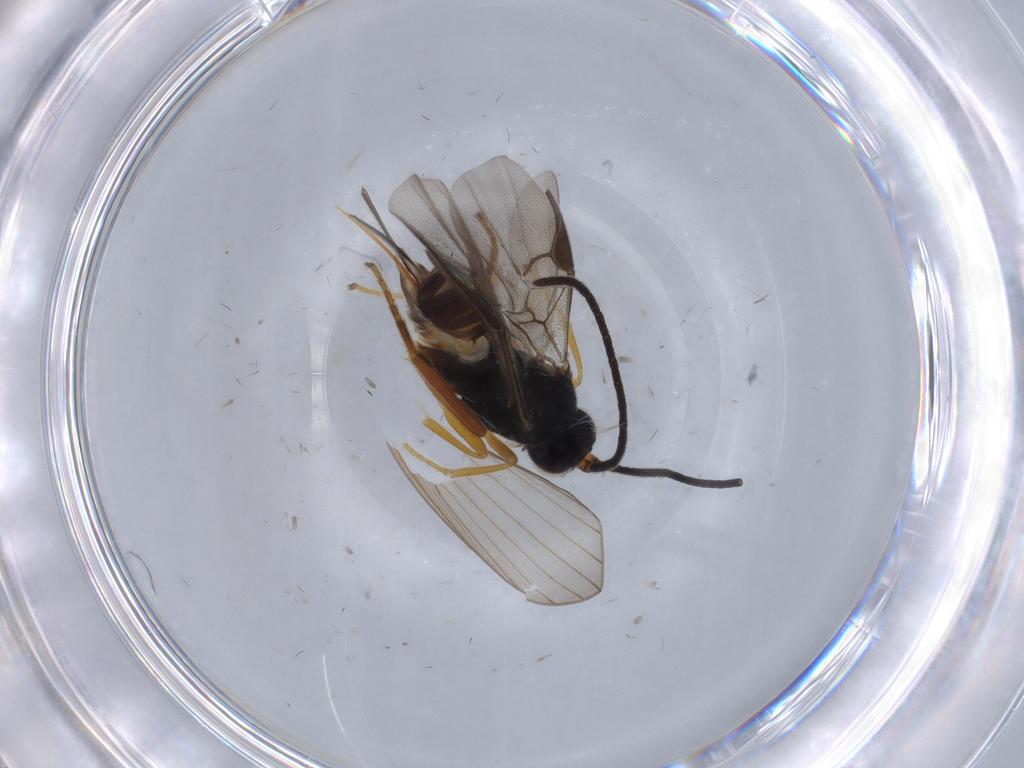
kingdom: Animalia
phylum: Arthropoda
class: Insecta
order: Hymenoptera
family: Braconidae
